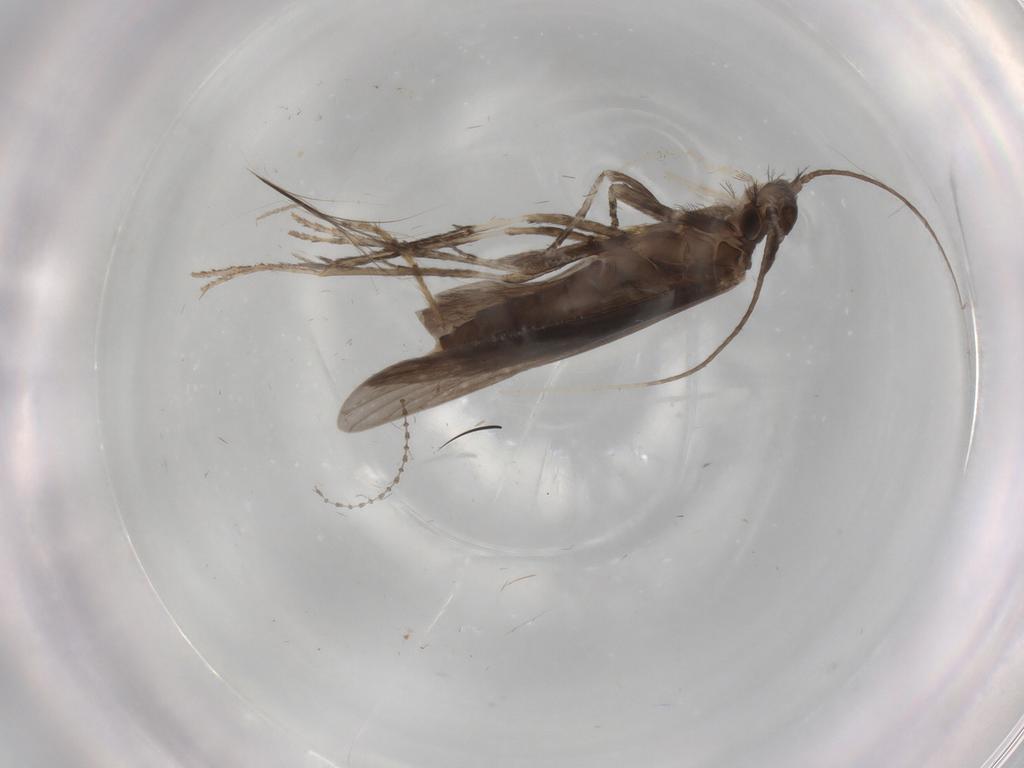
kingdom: Animalia
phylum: Arthropoda
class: Insecta
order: Trichoptera
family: Xiphocentronidae
